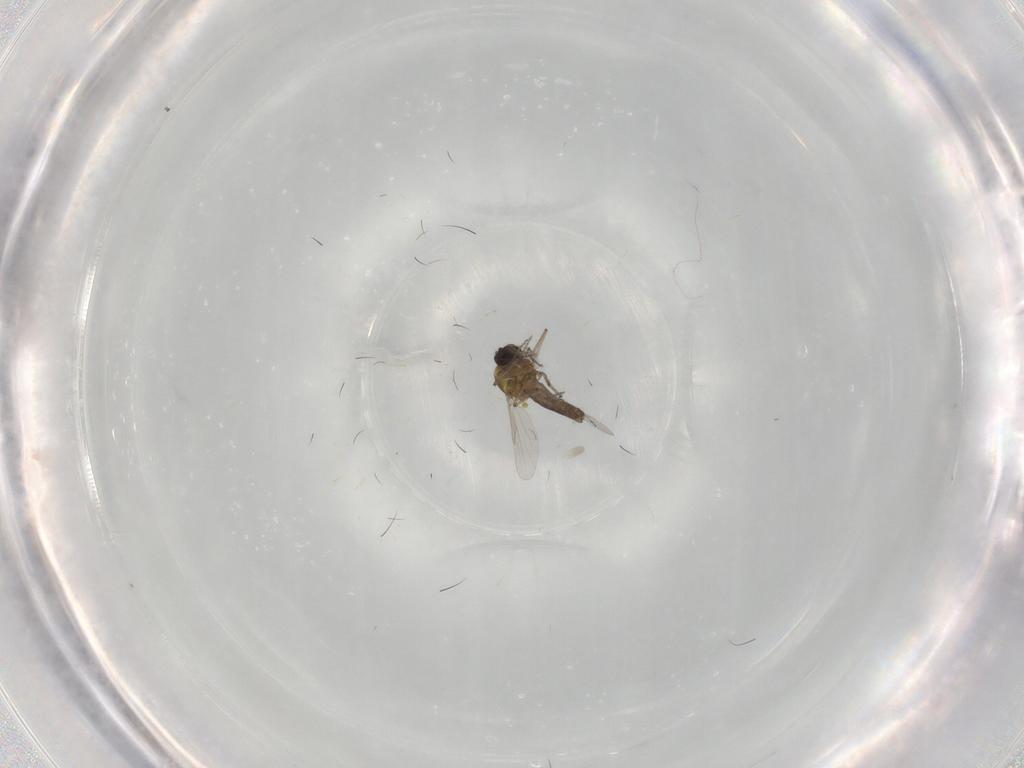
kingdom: Animalia
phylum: Arthropoda
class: Insecta
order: Diptera
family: Ceratopogonidae
